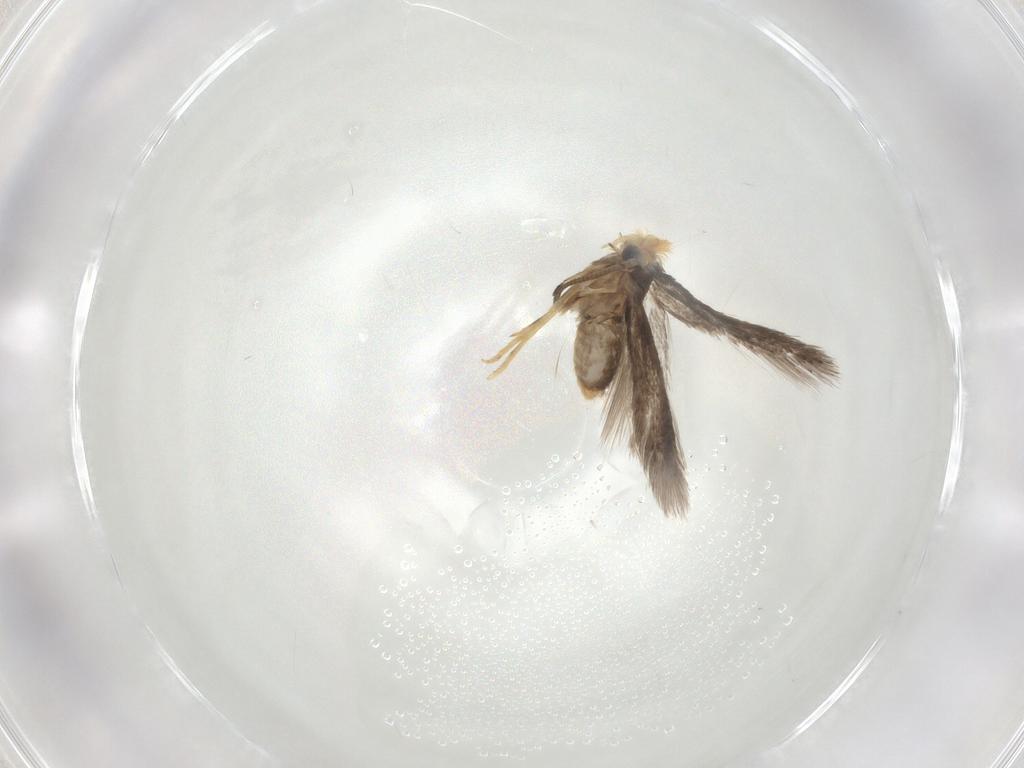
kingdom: Animalia
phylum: Arthropoda
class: Insecta
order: Lepidoptera
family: Nepticulidae
